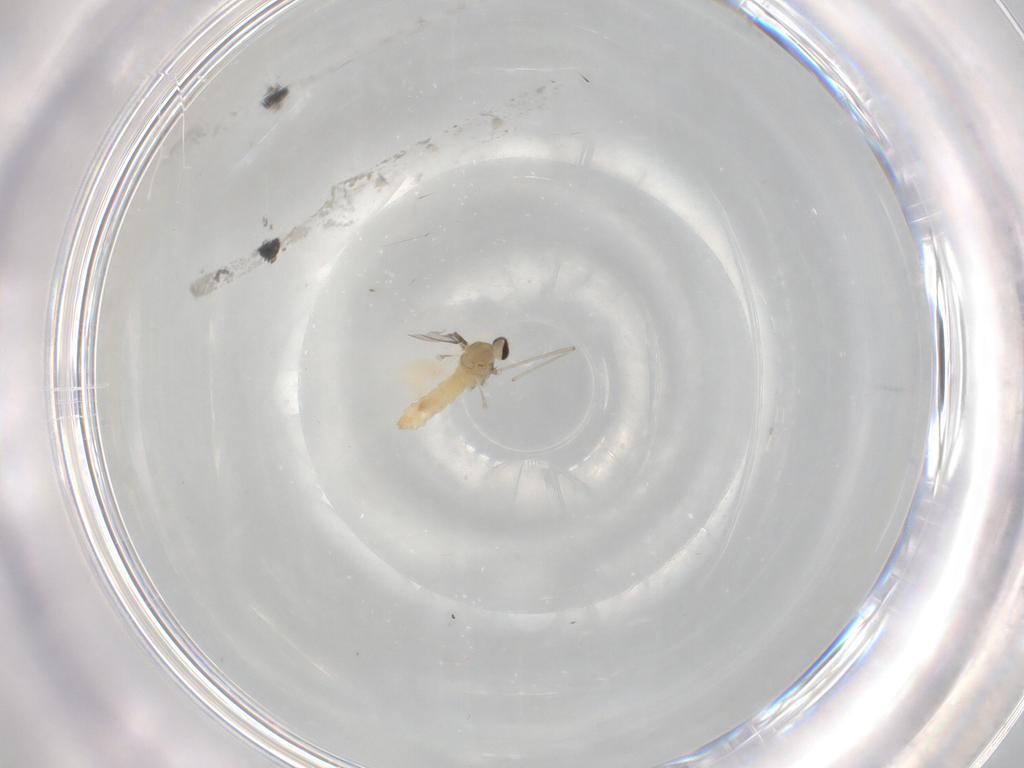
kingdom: Animalia
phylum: Arthropoda
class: Insecta
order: Diptera
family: Cecidomyiidae
